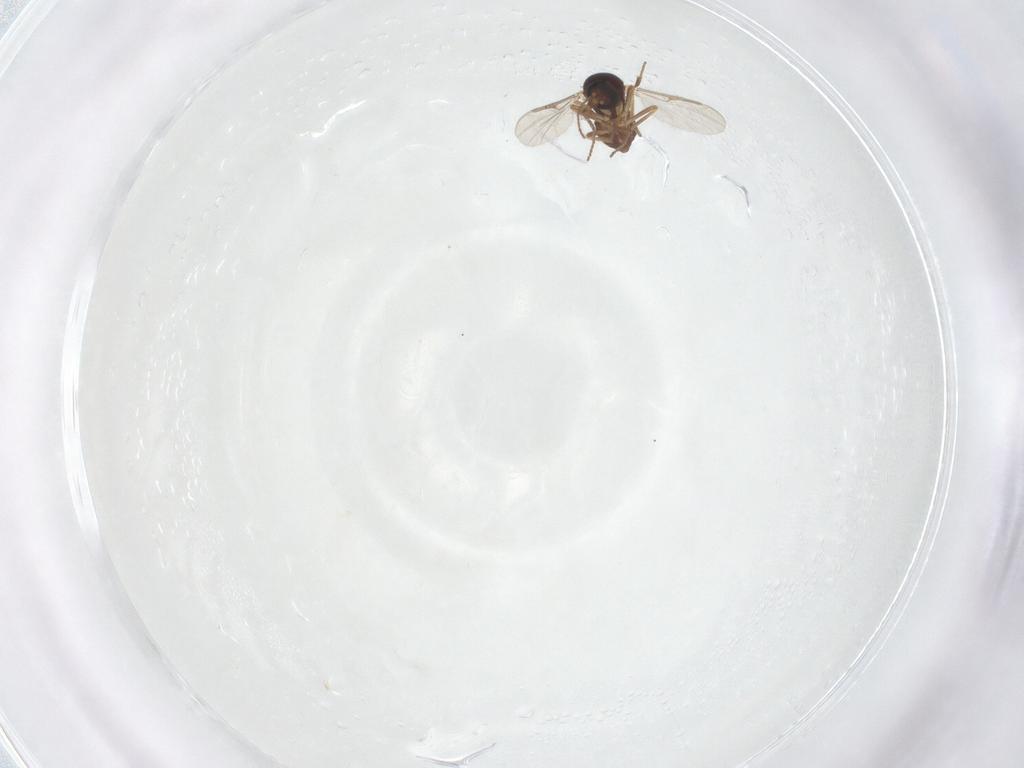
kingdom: Animalia
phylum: Arthropoda
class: Insecta
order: Diptera
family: Ceratopogonidae
